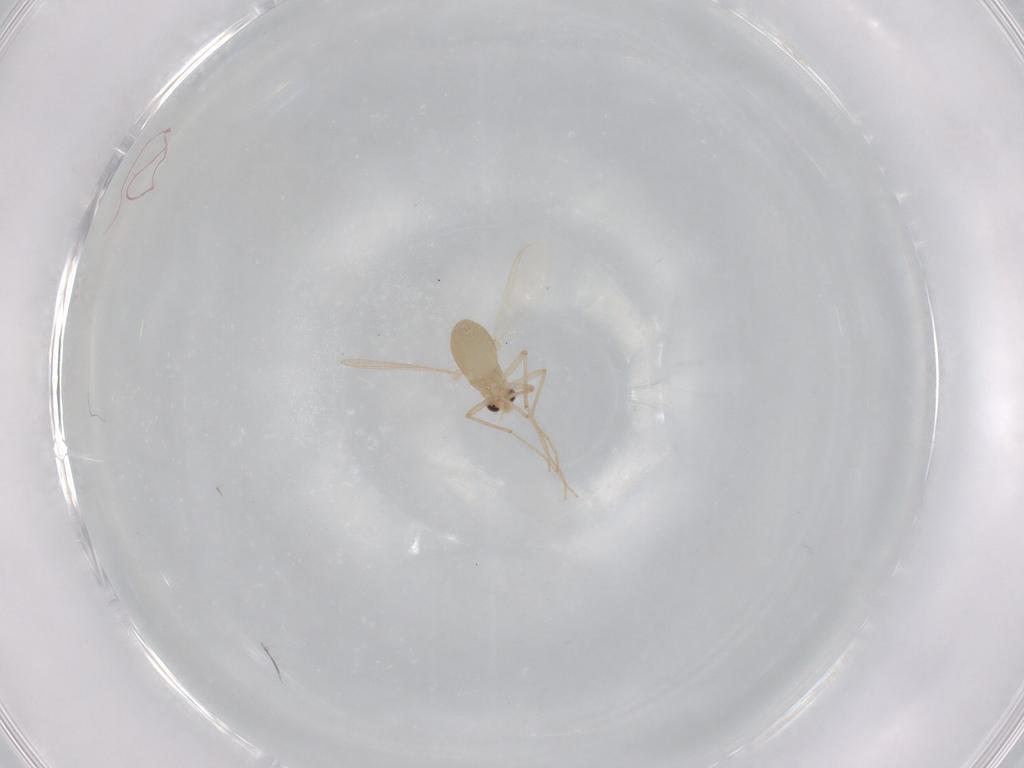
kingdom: Animalia
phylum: Arthropoda
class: Insecta
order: Diptera
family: Chironomidae
